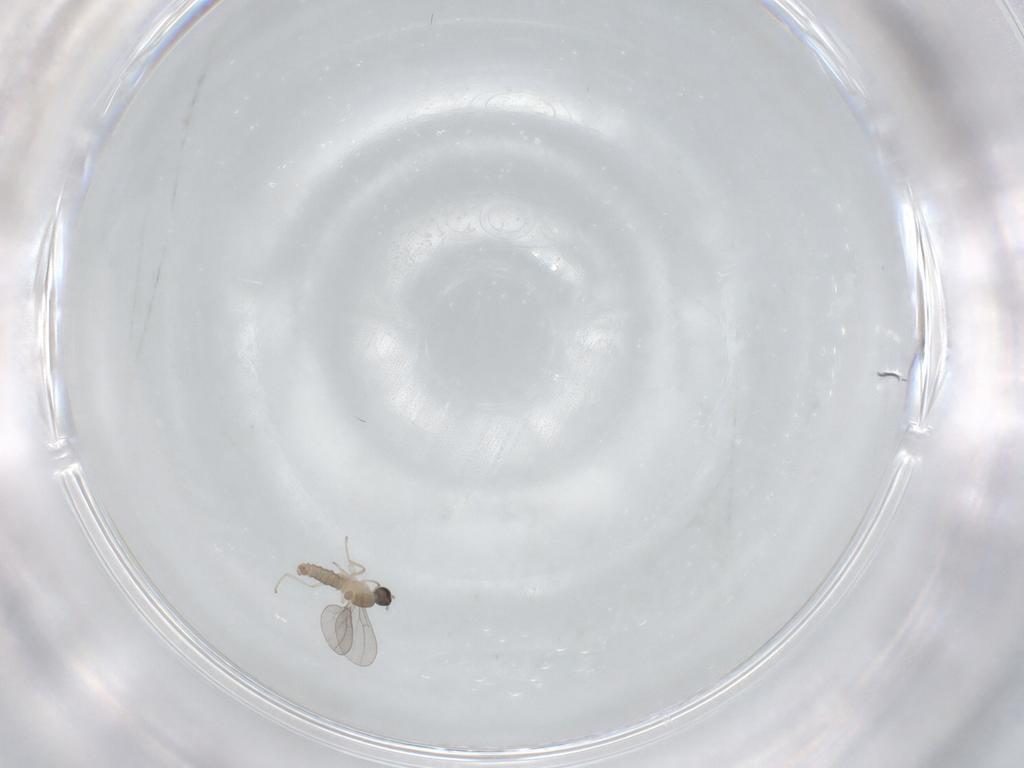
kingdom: Animalia
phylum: Arthropoda
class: Insecta
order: Diptera
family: Cecidomyiidae
